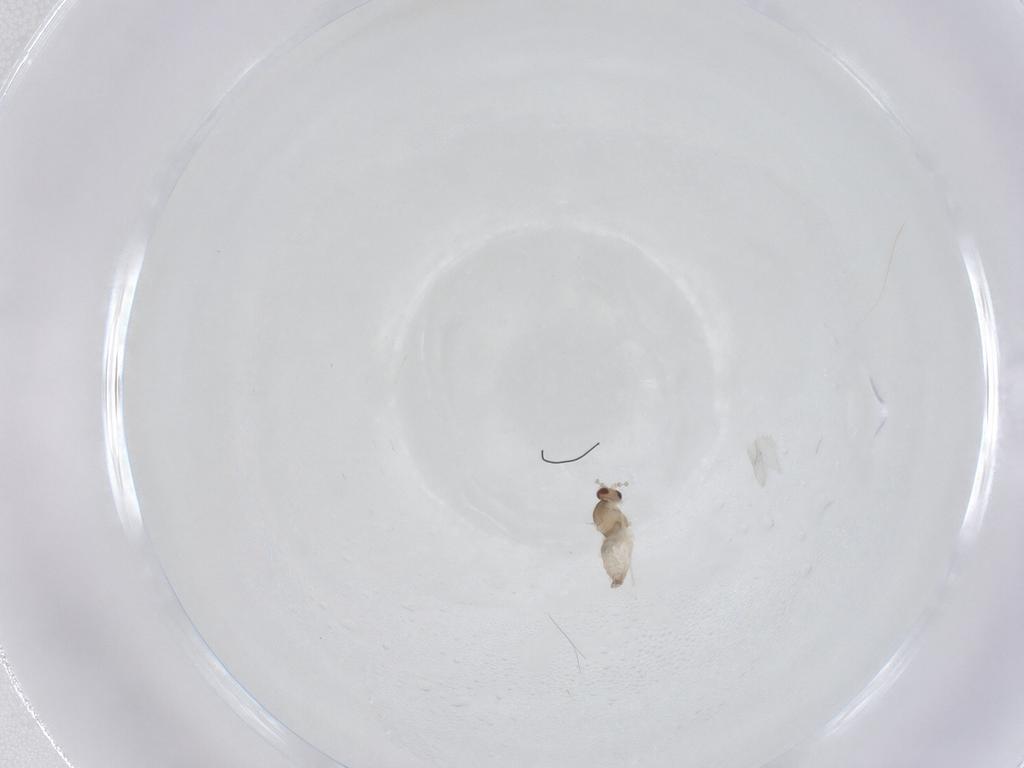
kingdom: Animalia
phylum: Arthropoda
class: Insecta
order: Diptera
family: Cecidomyiidae
